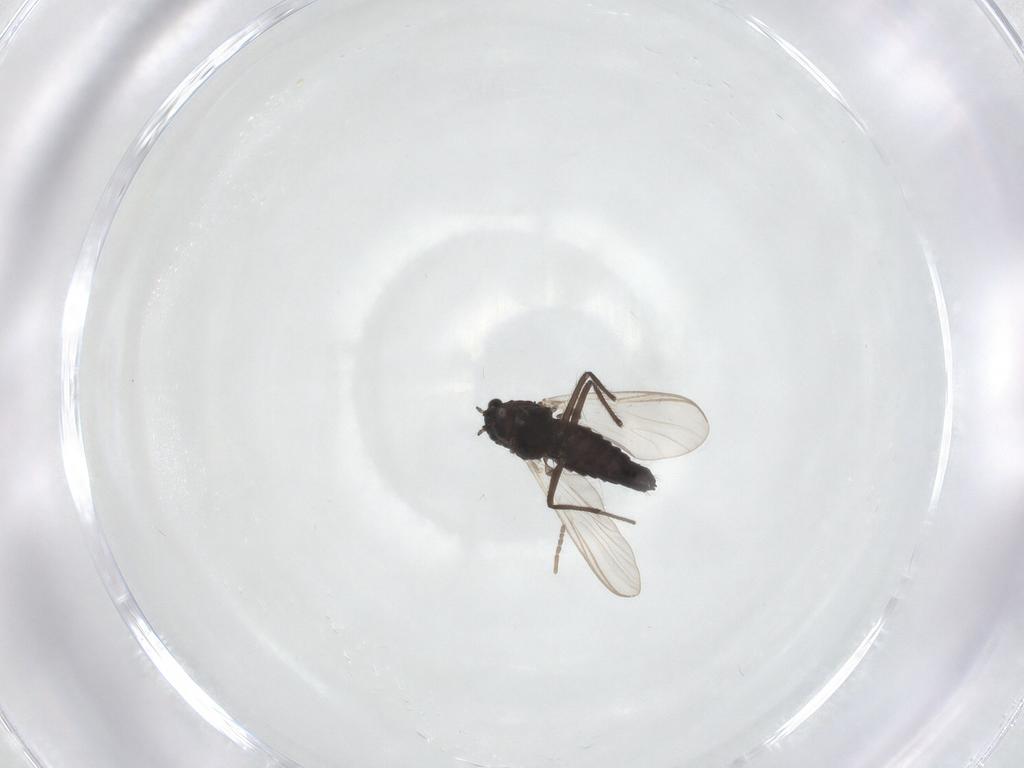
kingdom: Animalia
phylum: Arthropoda
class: Insecta
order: Diptera
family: Chironomidae
